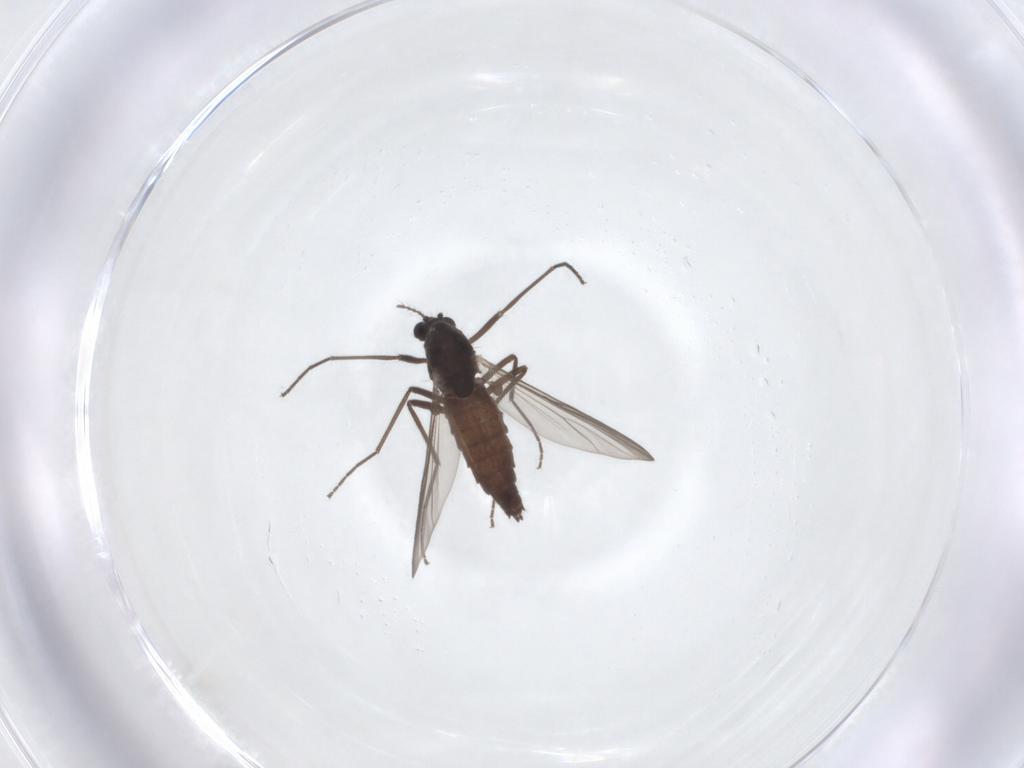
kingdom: Animalia
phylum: Arthropoda
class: Insecta
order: Diptera
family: Chironomidae
